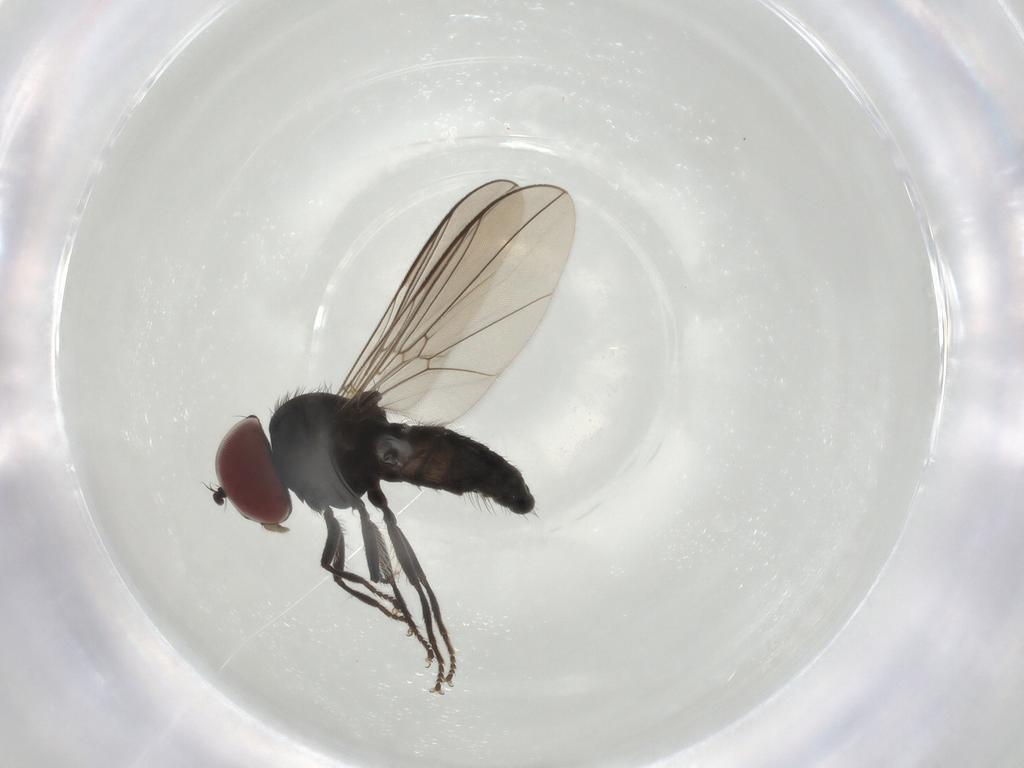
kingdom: Animalia
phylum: Arthropoda
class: Insecta
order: Diptera
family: Pipunculidae
